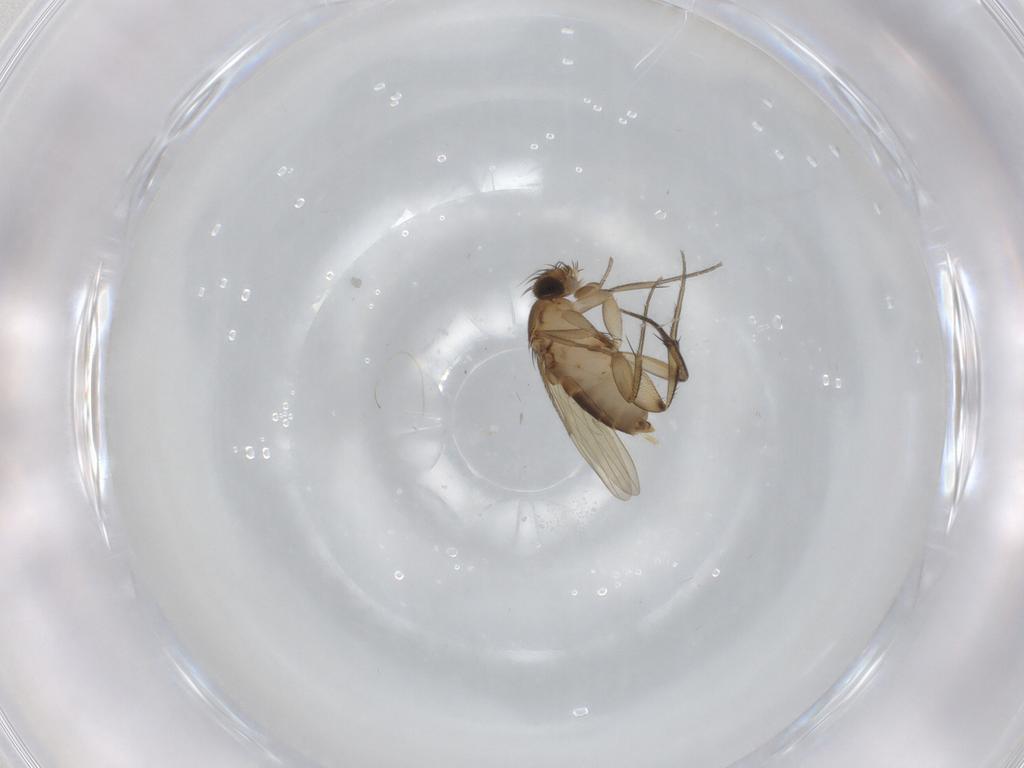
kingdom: Animalia
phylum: Arthropoda
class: Insecta
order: Diptera
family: Phoridae
